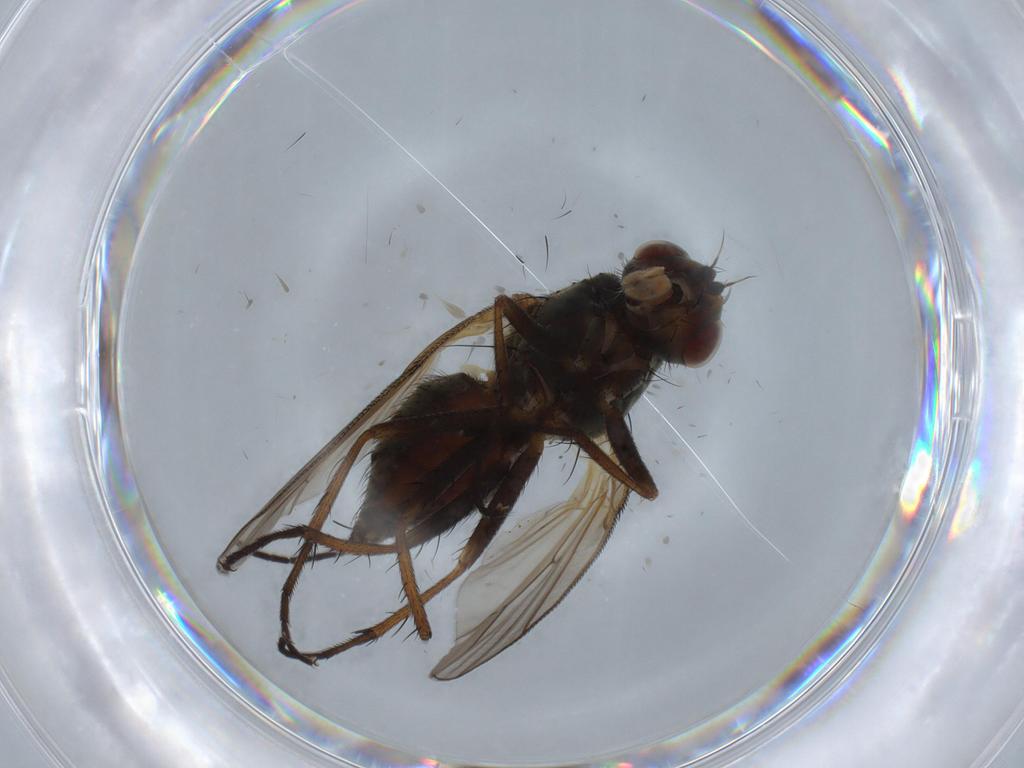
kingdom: Animalia
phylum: Arthropoda
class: Insecta
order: Diptera
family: Anthomyiidae
